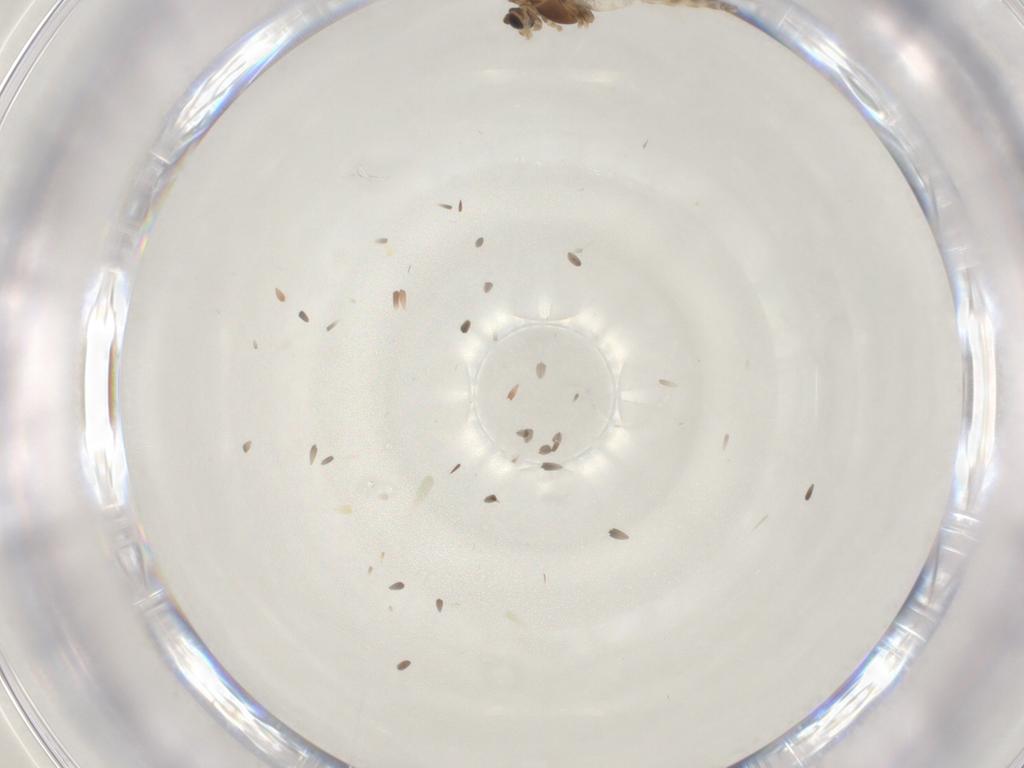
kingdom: Animalia
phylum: Arthropoda
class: Insecta
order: Diptera
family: Chironomidae
